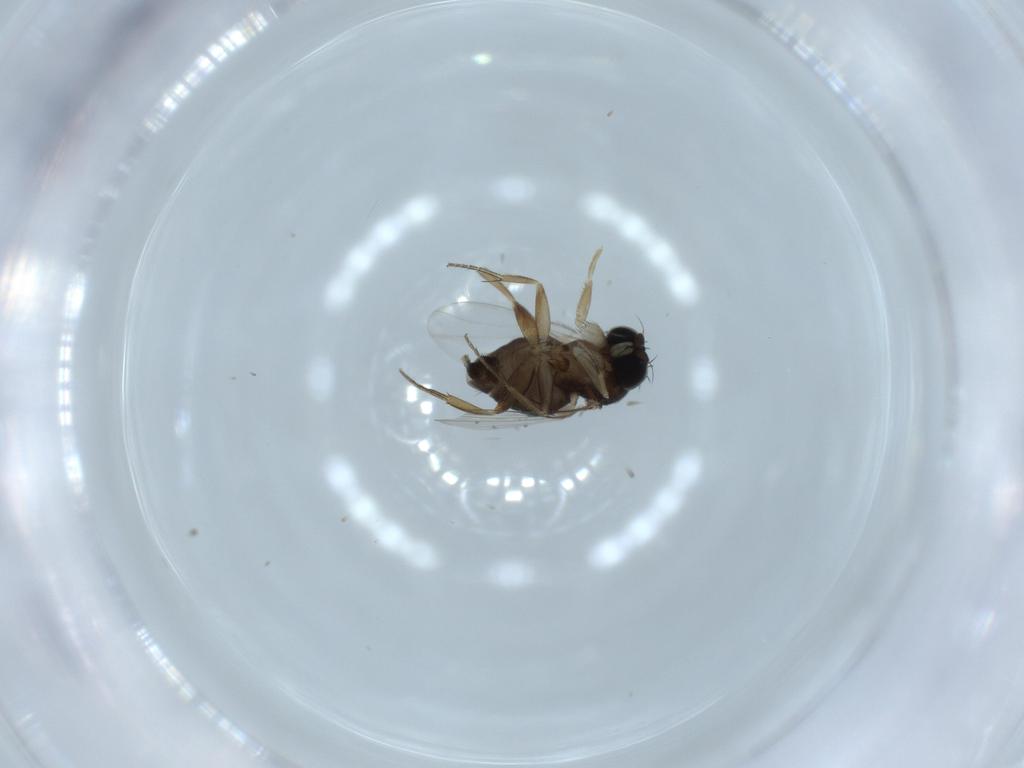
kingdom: Animalia
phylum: Arthropoda
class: Insecta
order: Diptera
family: Phoridae
